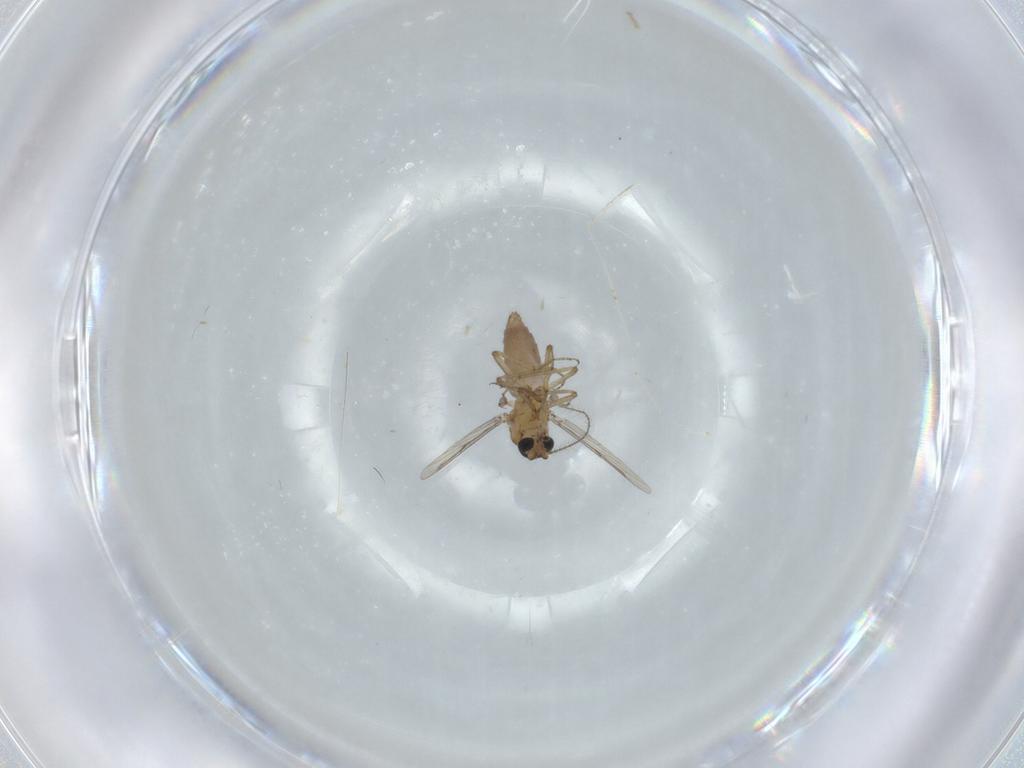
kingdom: Animalia
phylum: Arthropoda
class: Insecta
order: Diptera
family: Cecidomyiidae
